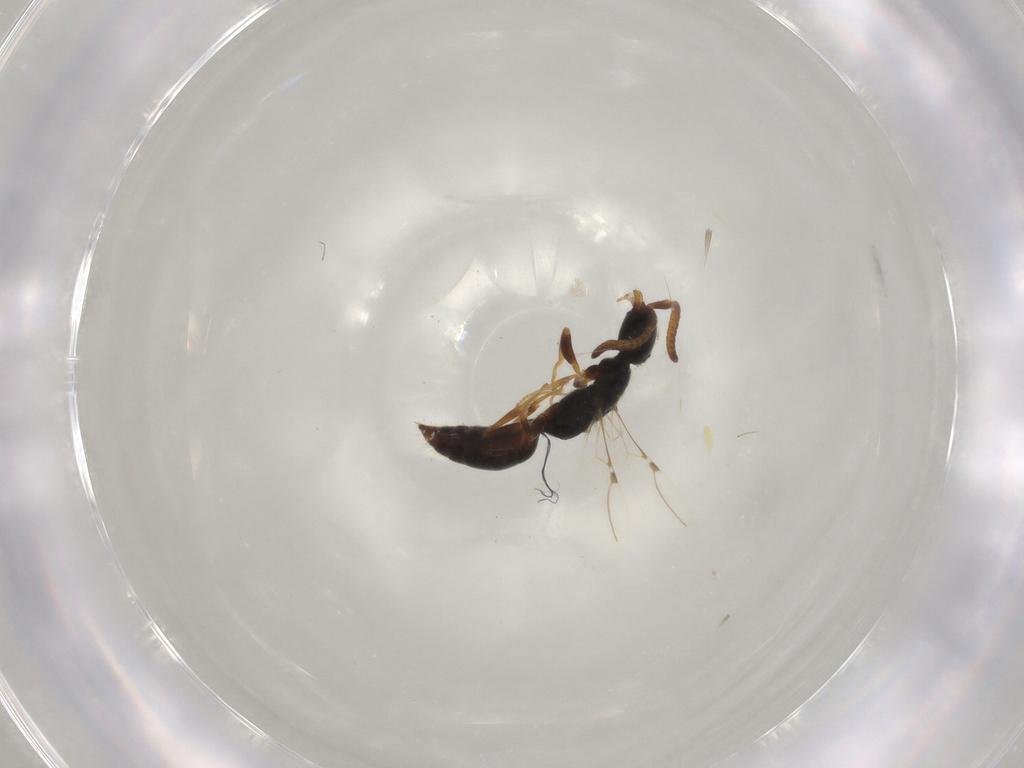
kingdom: Animalia
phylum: Arthropoda
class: Insecta
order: Hymenoptera
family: Bethylidae
